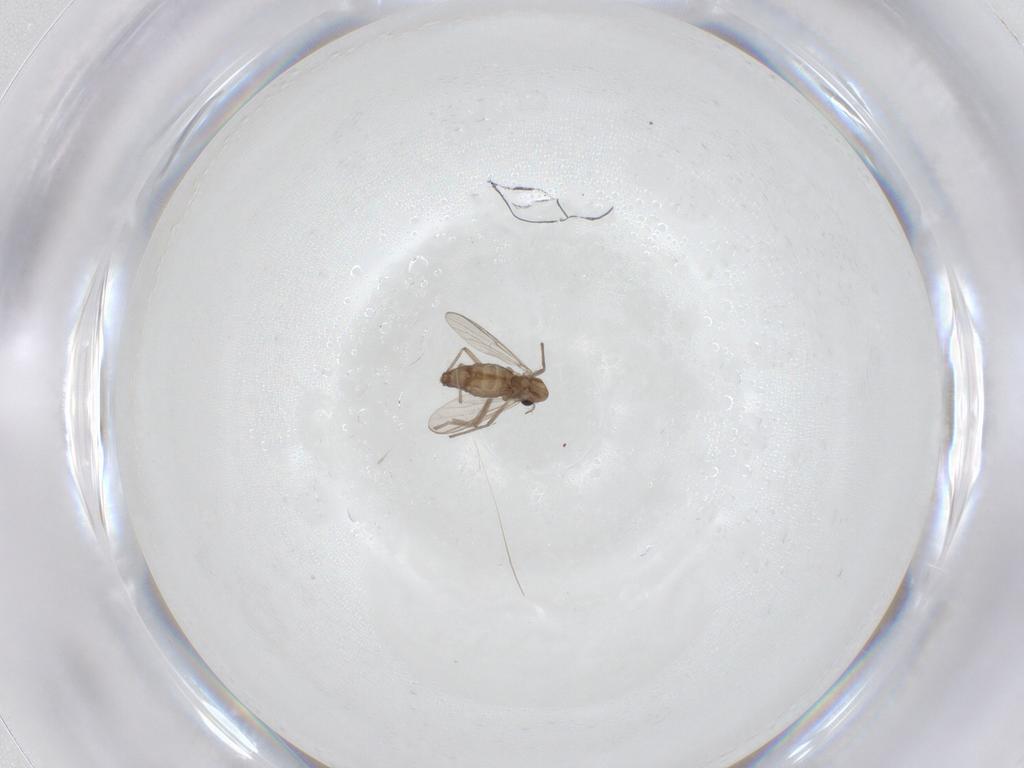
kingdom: Animalia
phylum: Arthropoda
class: Insecta
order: Diptera
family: Chironomidae
